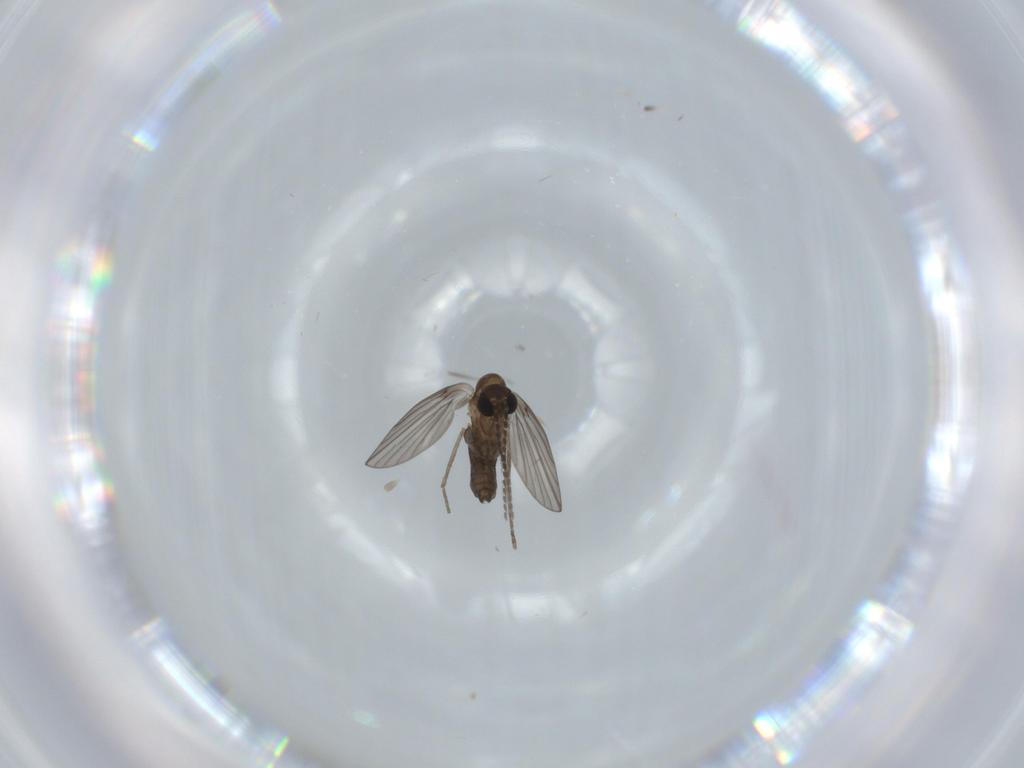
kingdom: Animalia
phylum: Arthropoda
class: Insecta
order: Diptera
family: Psychodidae
